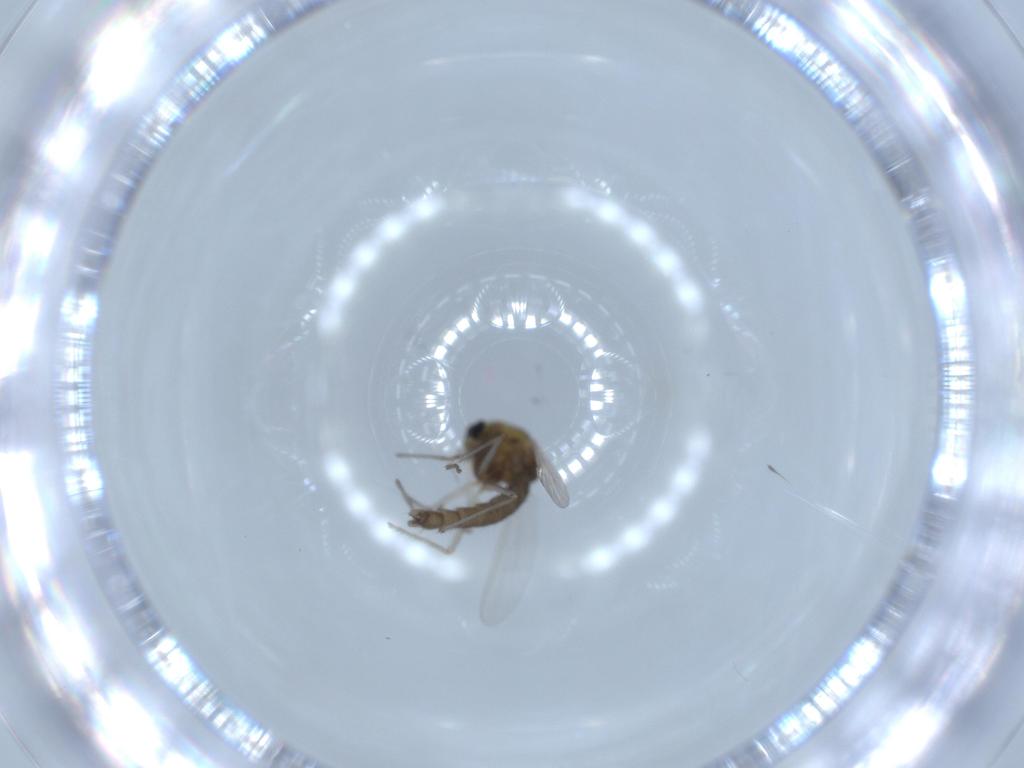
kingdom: Animalia
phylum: Arthropoda
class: Insecta
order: Diptera
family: Chironomidae
